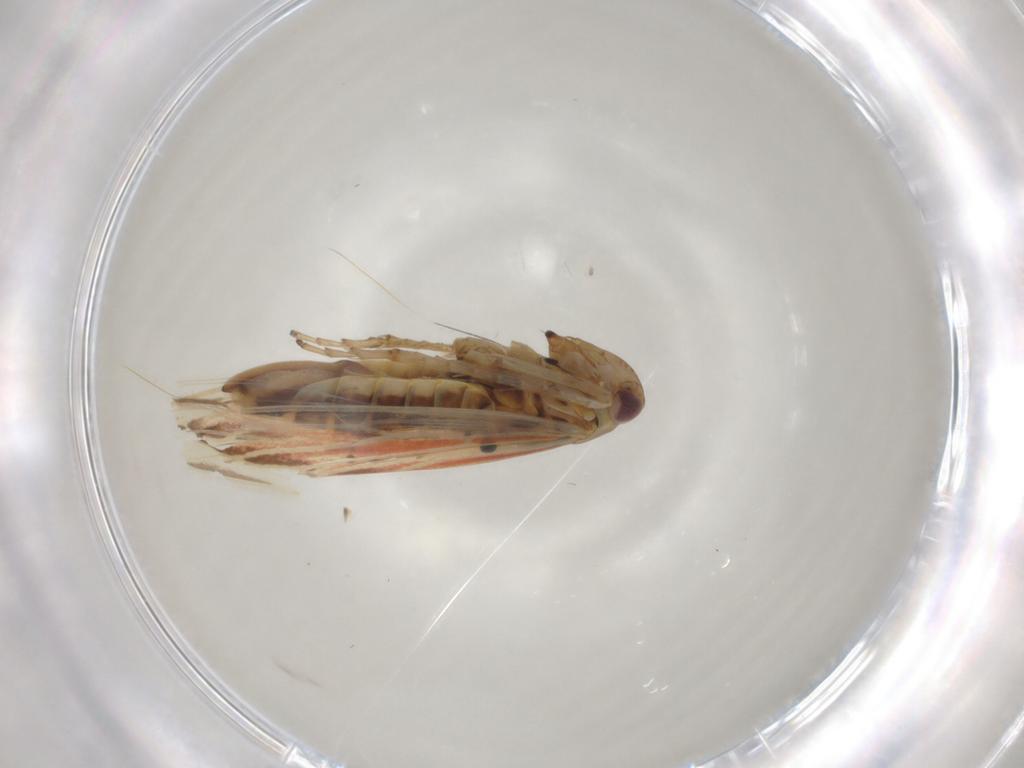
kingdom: Animalia
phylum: Arthropoda
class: Insecta
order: Hemiptera
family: Cicadellidae
